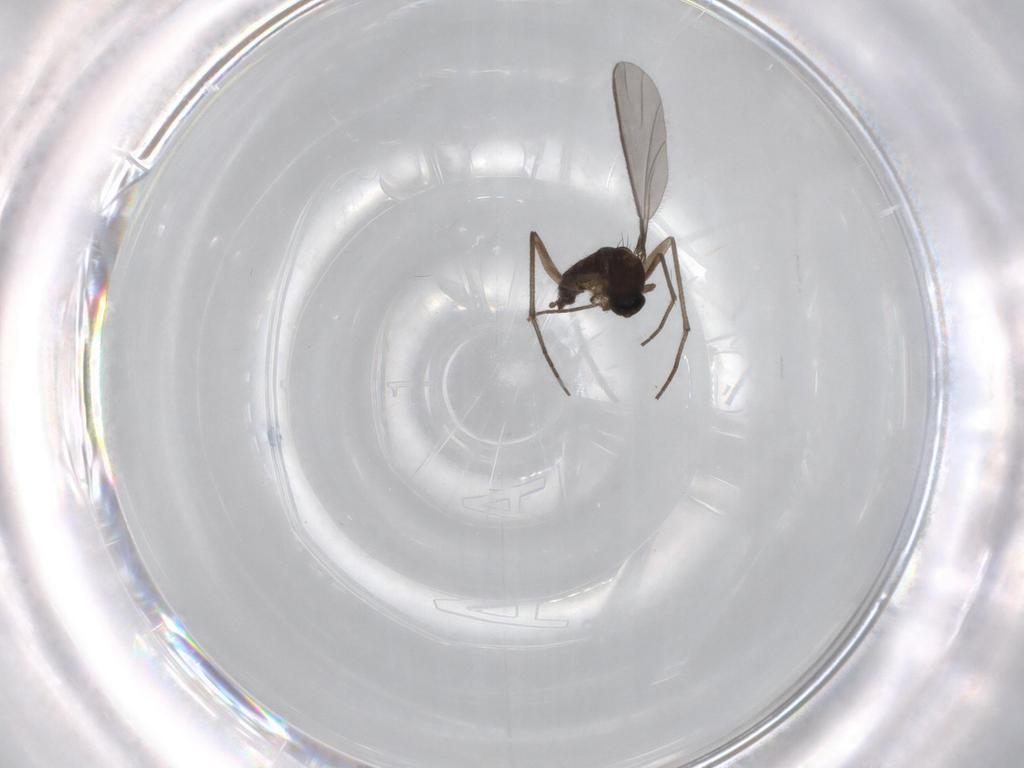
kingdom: Animalia
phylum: Arthropoda
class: Insecta
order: Diptera
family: Sciaridae
